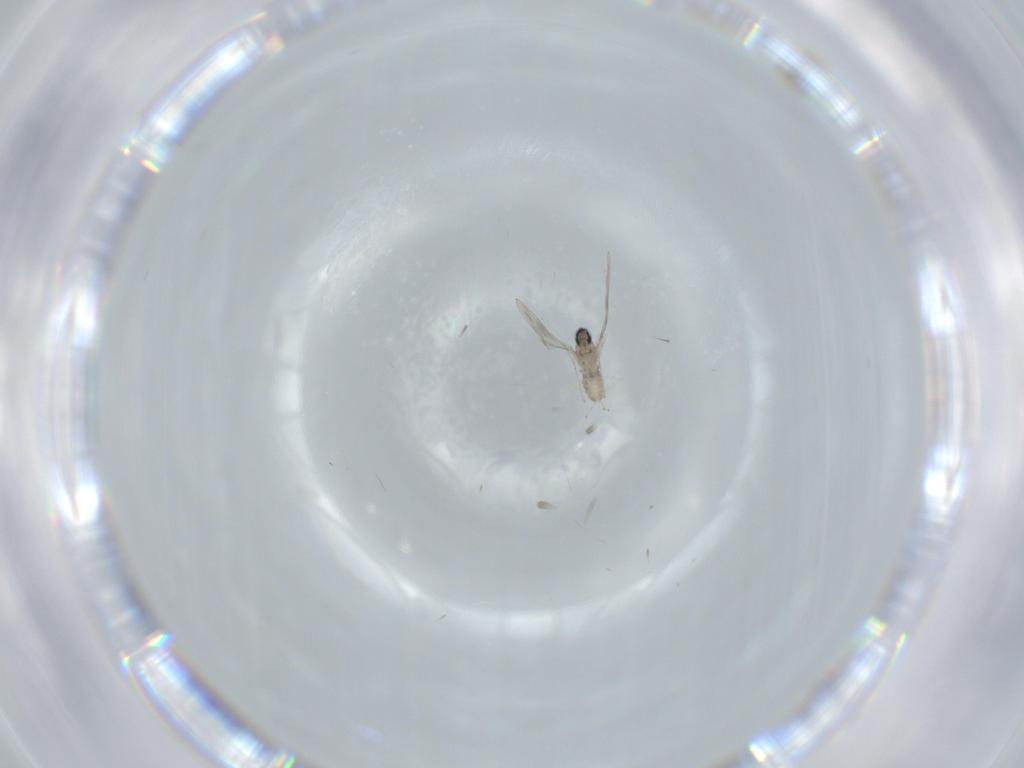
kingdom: Animalia
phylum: Arthropoda
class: Insecta
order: Diptera
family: Cecidomyiidae
